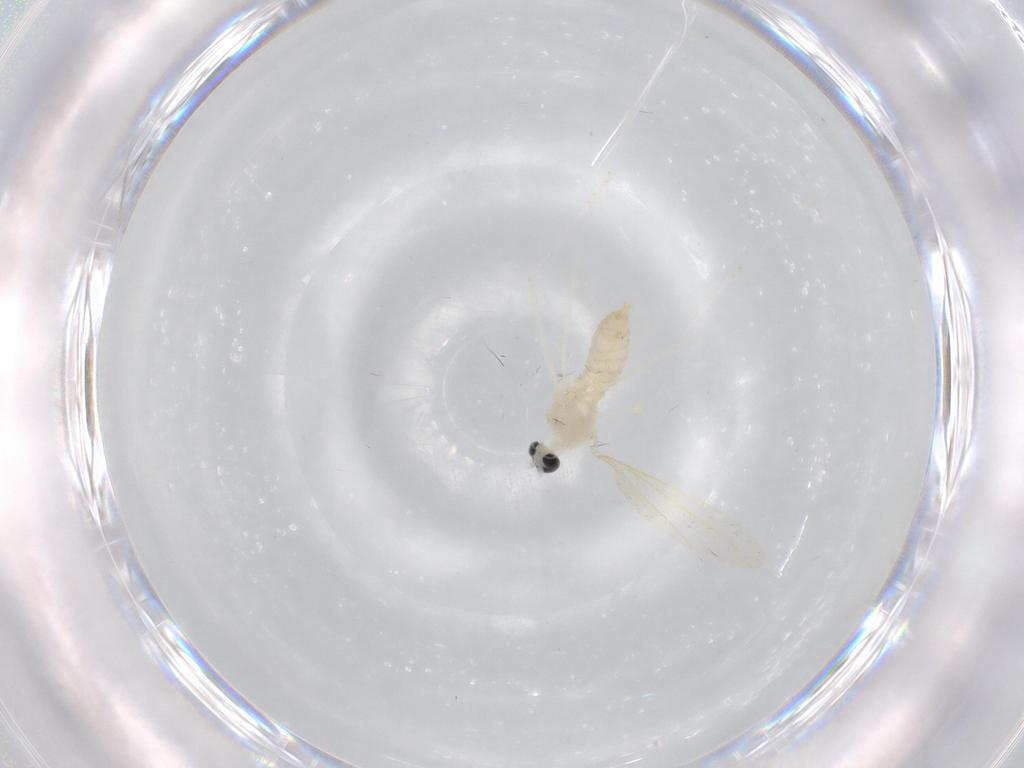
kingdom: Animalia
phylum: Arthropoda
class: Insecta
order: Diptera
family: Cecidomyiidae
